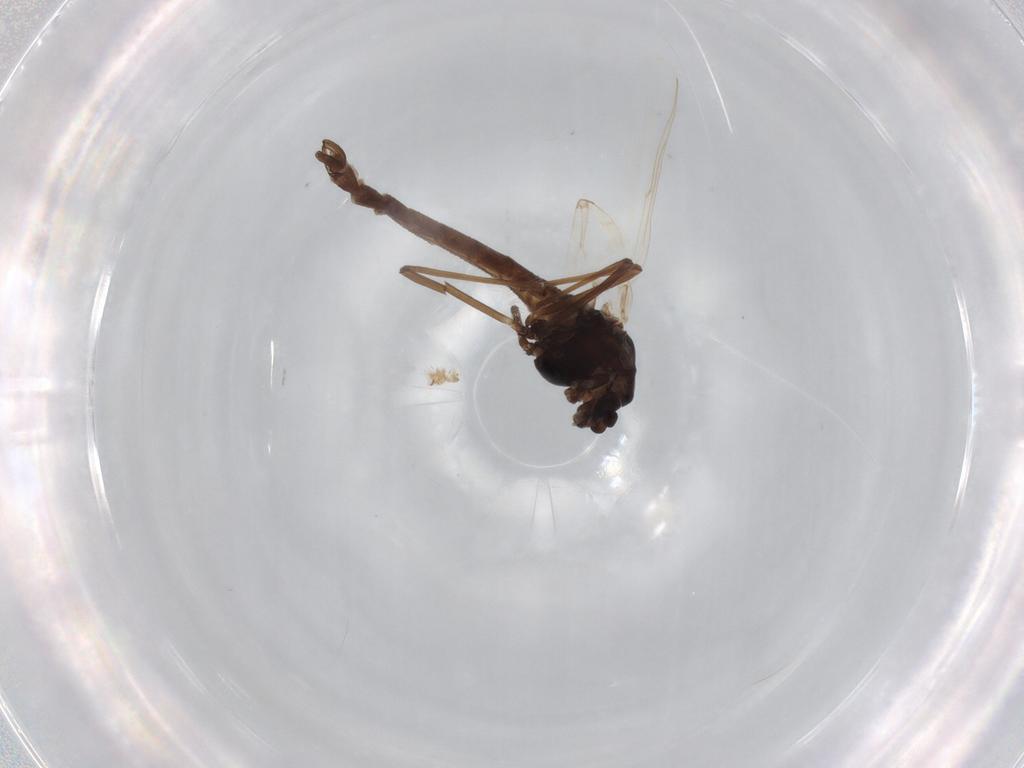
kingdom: Animalia
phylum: Arthropoda
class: Insecta
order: Diptera
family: Chironomidae
